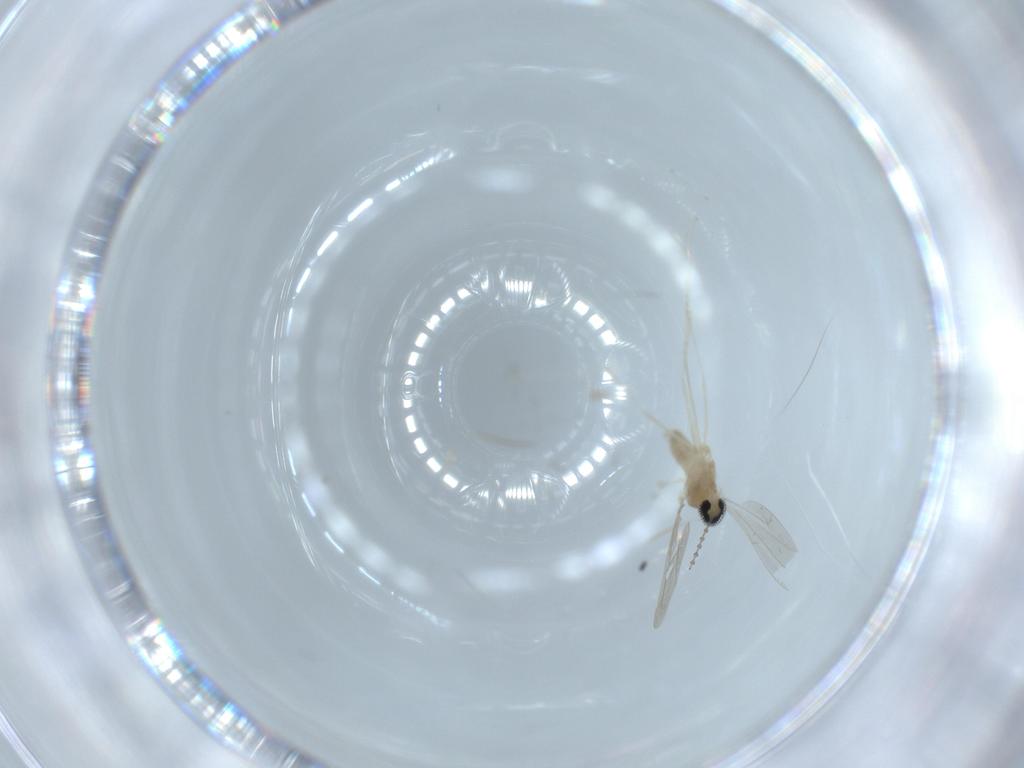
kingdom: Animalia
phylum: Arthropoda
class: Insecta
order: Diptera
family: Cecidomyiidae
